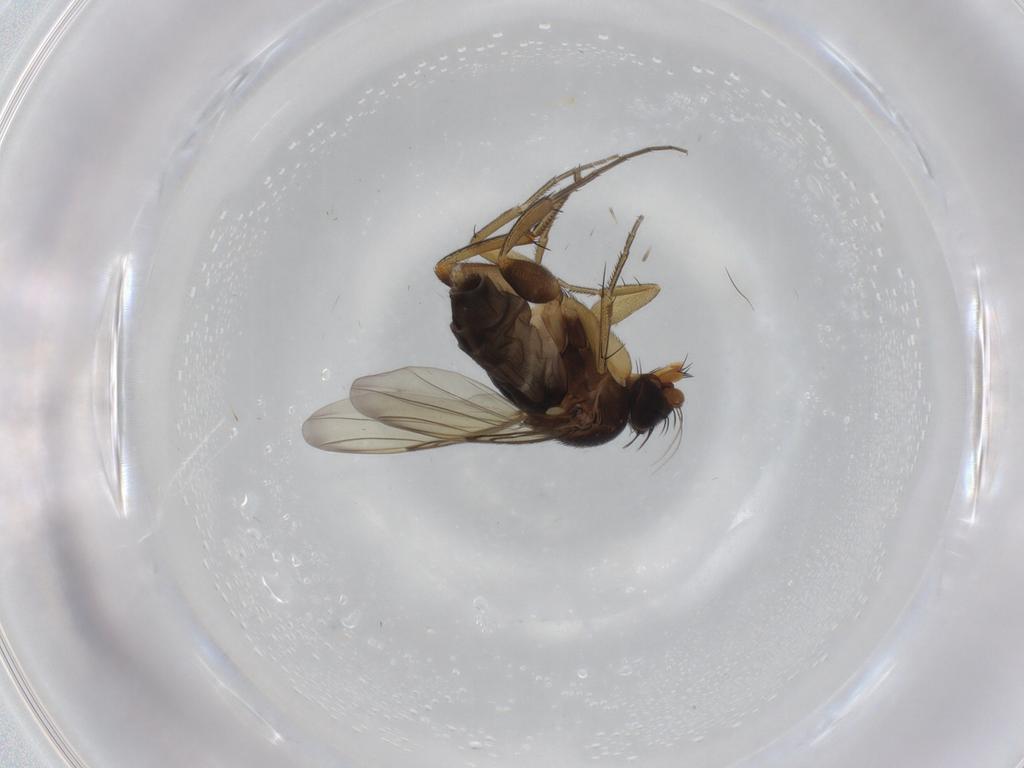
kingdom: Animalia
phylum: Arthropoda
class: Insecta
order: Diptera
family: Phoridae
